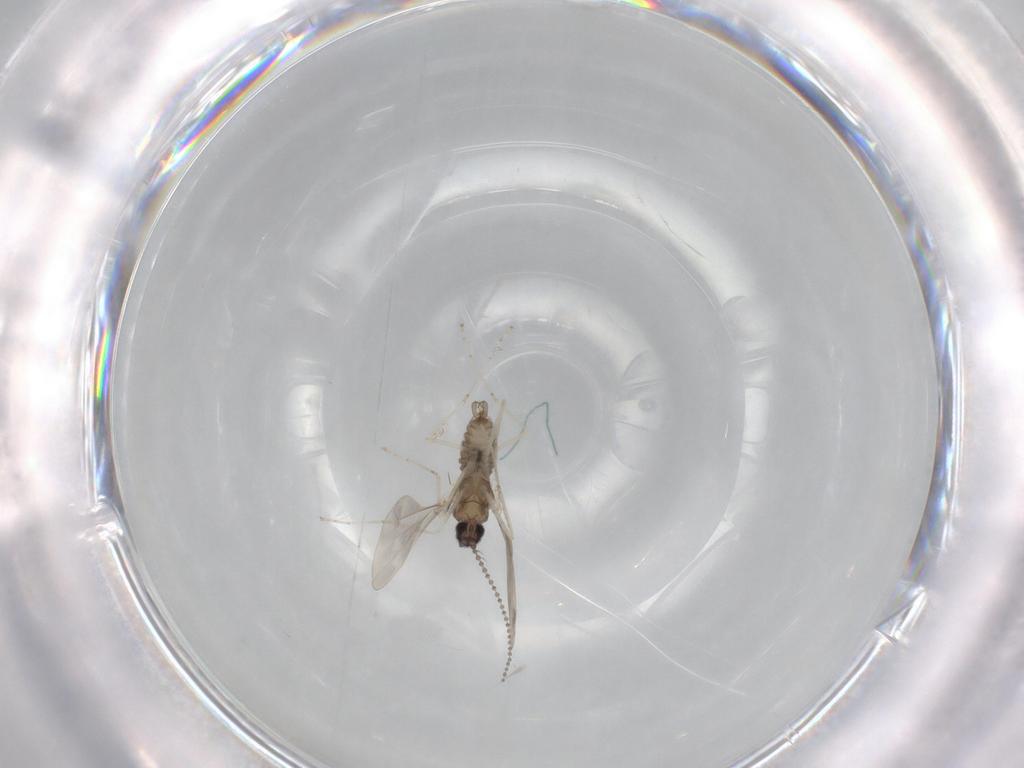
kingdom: Animalia
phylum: Arthropoda
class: Insecta
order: Diptera
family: Cecidomyiidae
